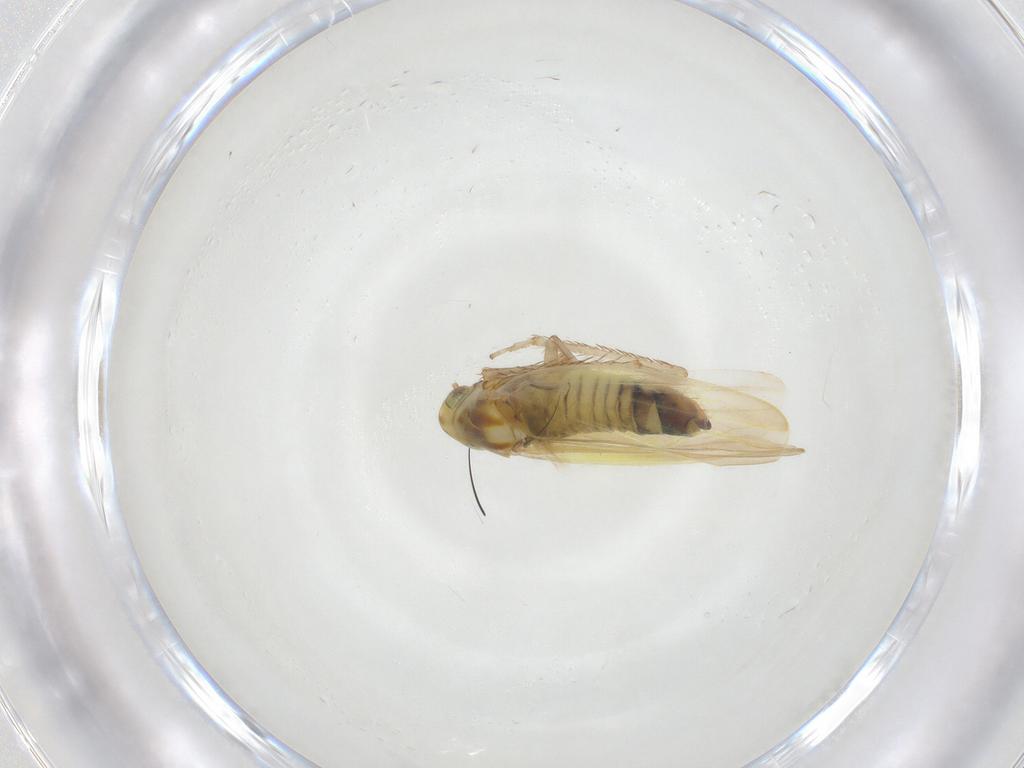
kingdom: Animalia
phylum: Arthropoda
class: Insecta
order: Hemiptera
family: Cicadellidae
